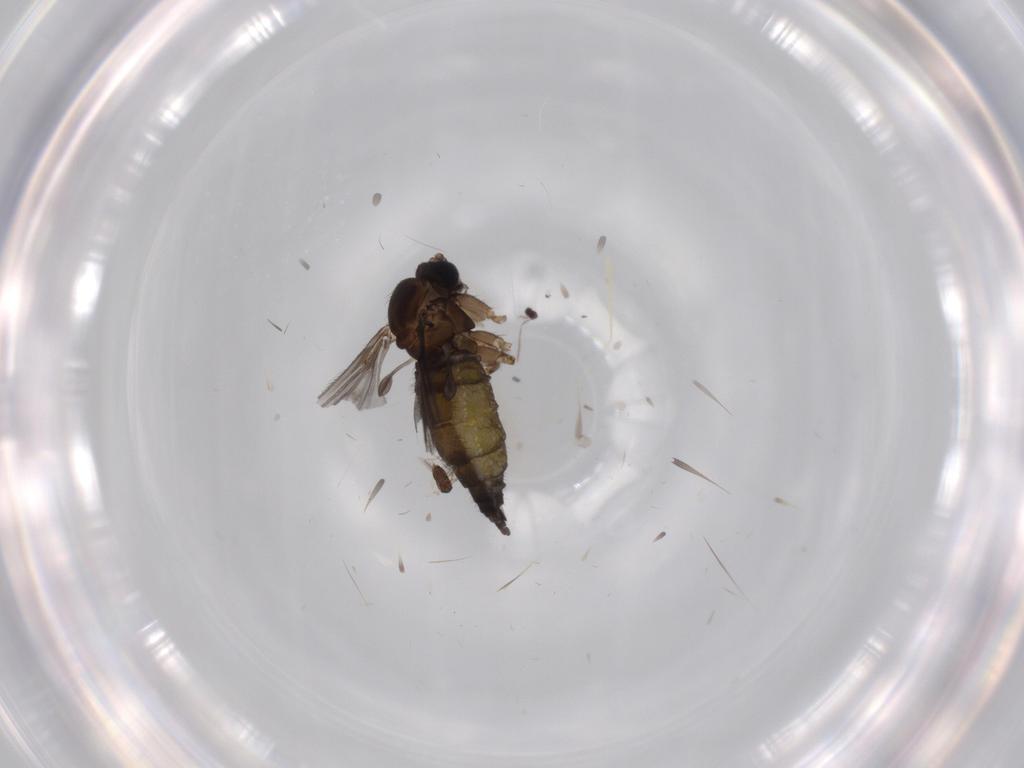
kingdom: Animalia
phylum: Arthropoda
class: Insecta
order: Diptera
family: Sciaridae
